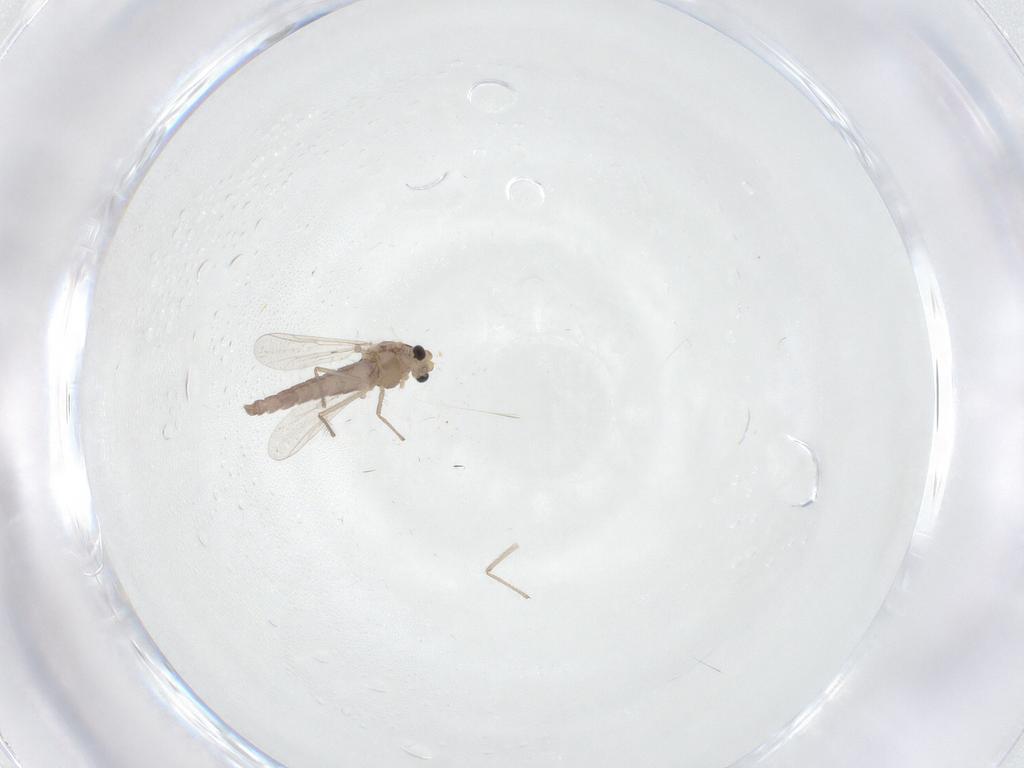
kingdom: Animalia
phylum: Arthropoda
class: Insecta
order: Diptera
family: Chironomidae
